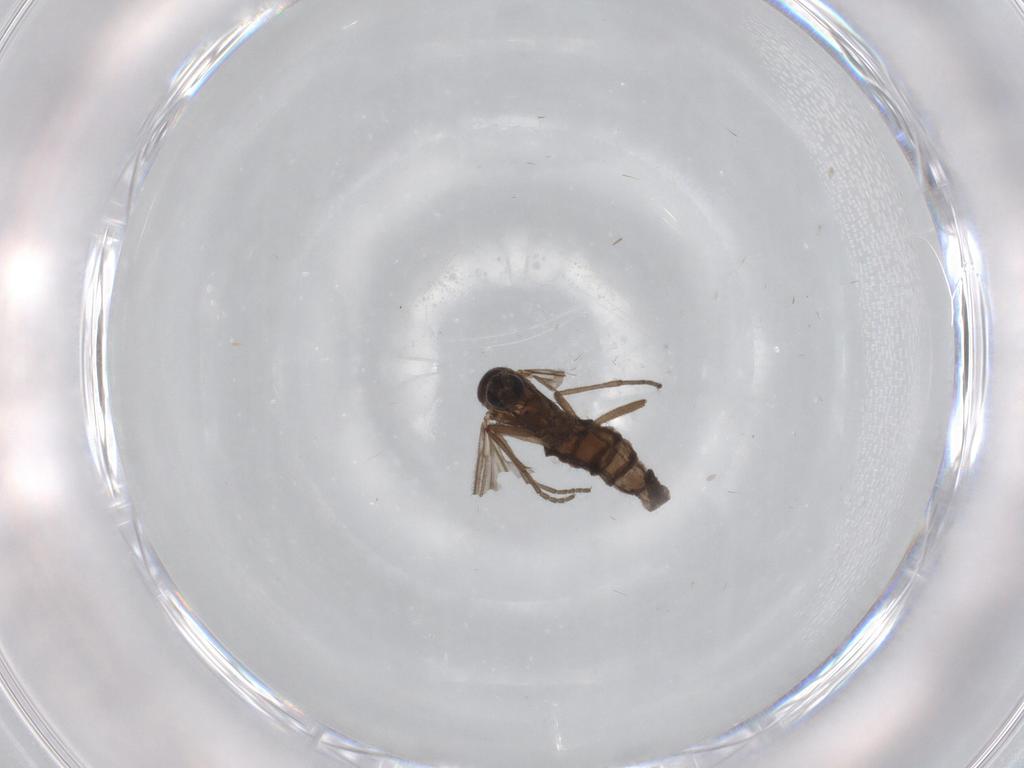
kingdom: Animalia
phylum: Arthropoda
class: Insecta
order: Diptera
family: Sciaridae
